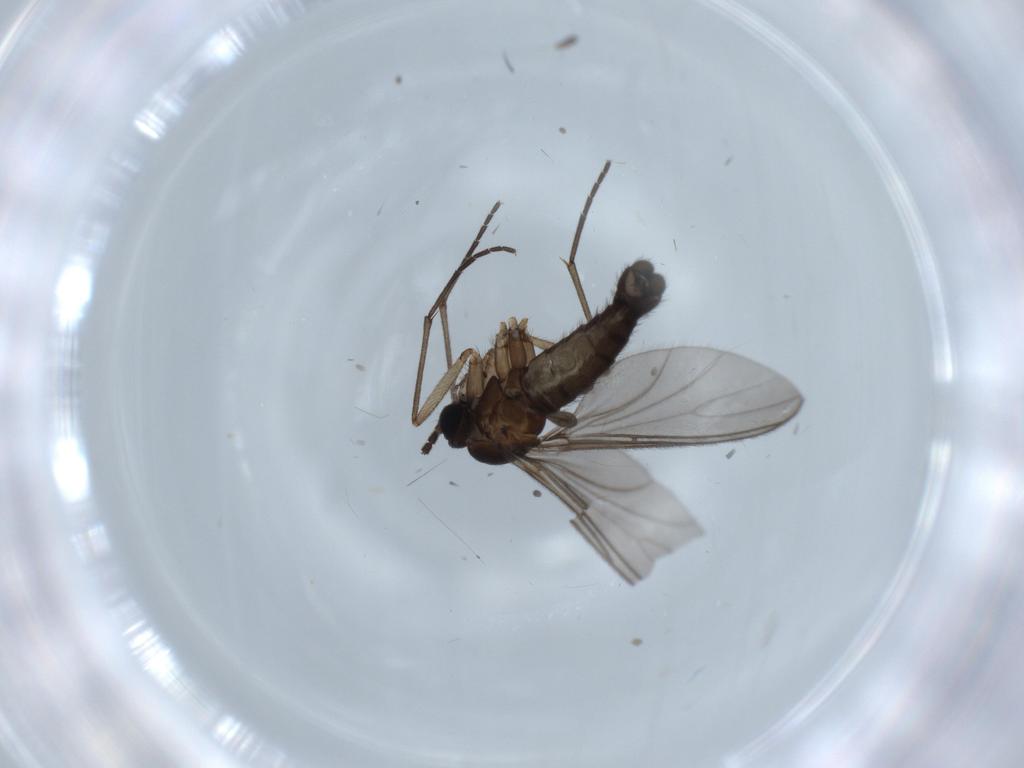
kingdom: Animalia
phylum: Arthropoda
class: Insecta
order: Diptera
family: Sciaridae
